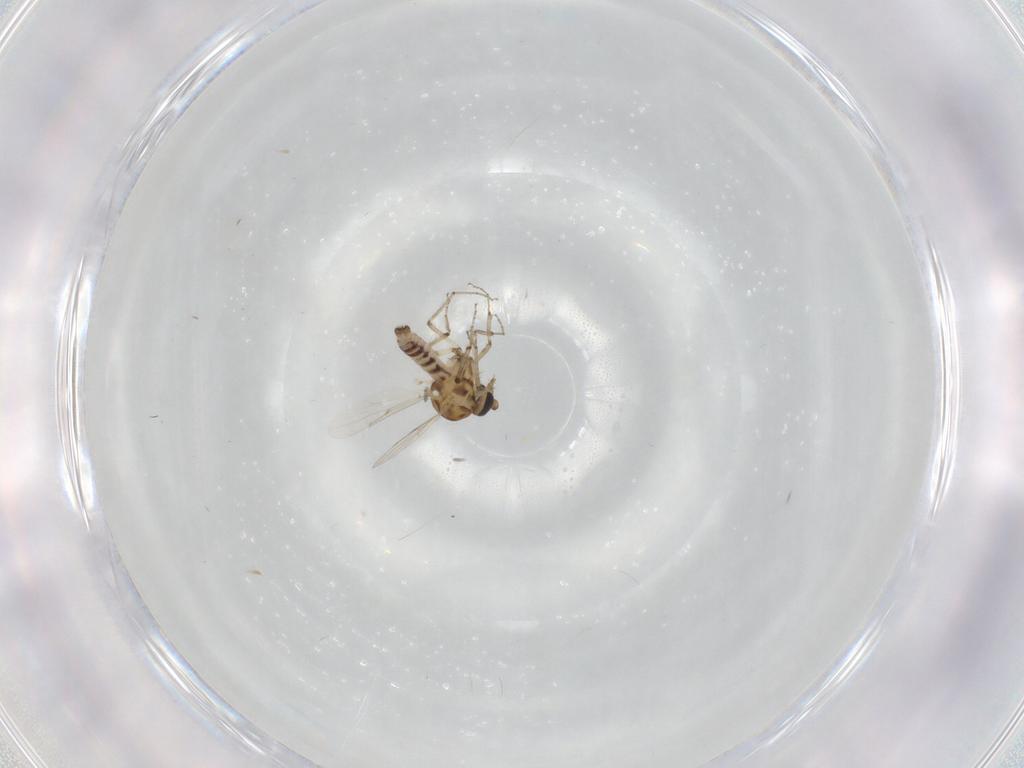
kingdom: Animalia
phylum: Arthropoda
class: Insecta
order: Diptera
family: Ceratopogonidae
